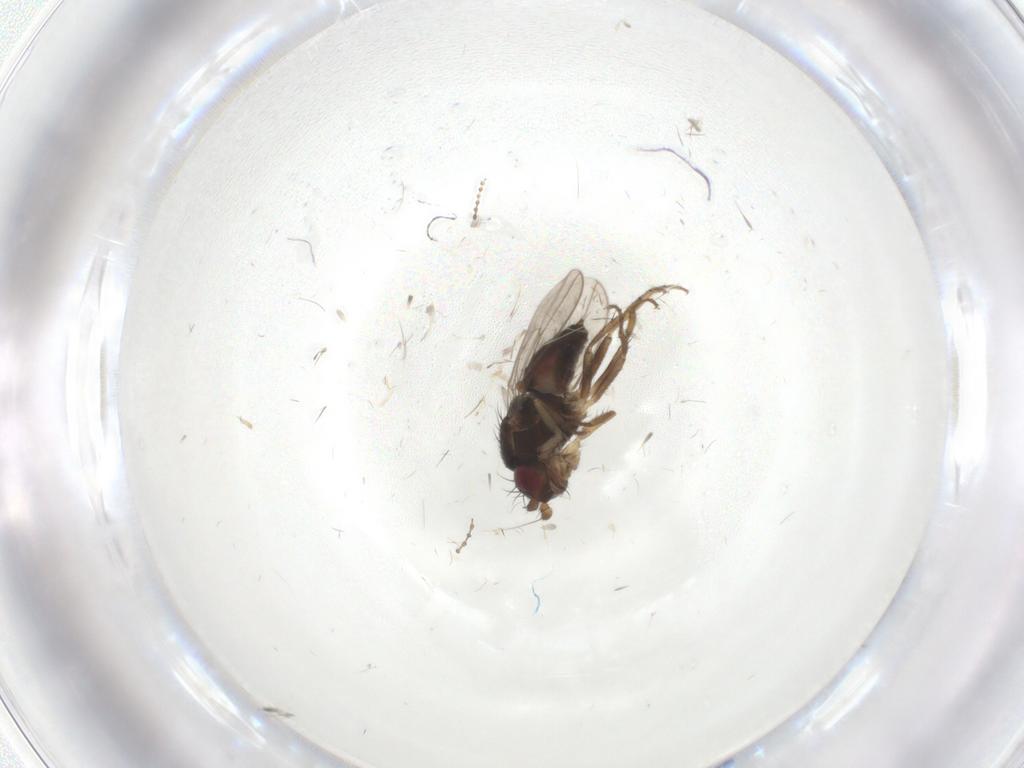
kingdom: Animalia
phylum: Arthropoda
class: Insecta
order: Diptera
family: Sphaeroceridae
